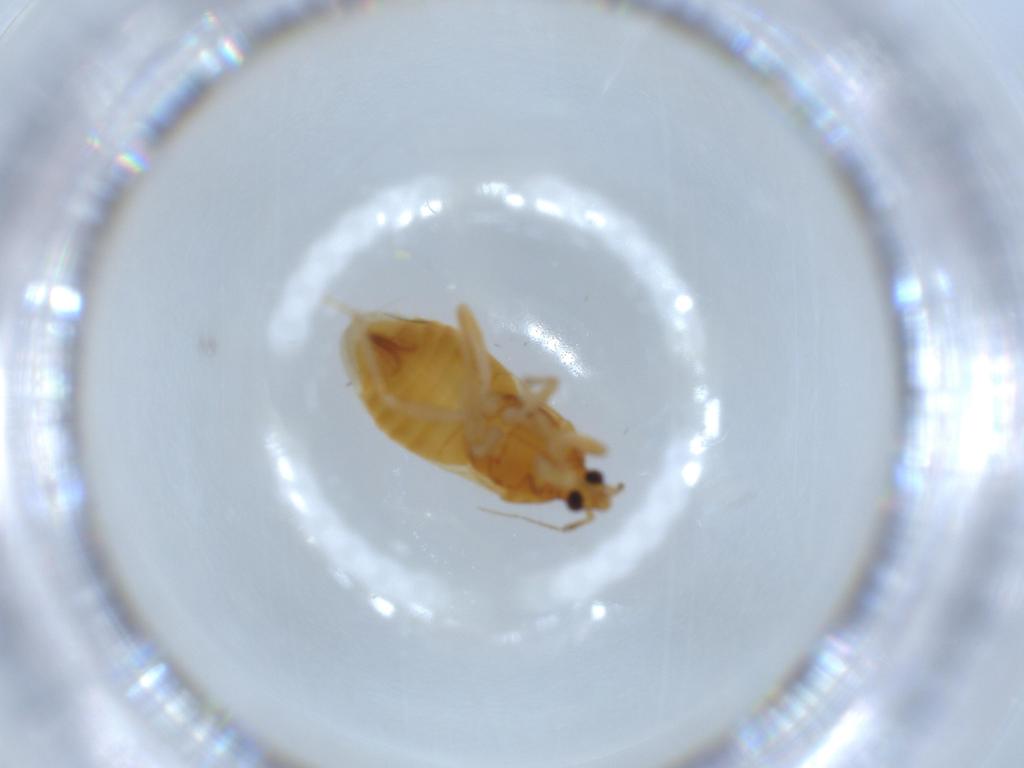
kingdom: Animalia
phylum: Arthropoda
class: Insecta
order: Hemiptera
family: Lasiochilidae
